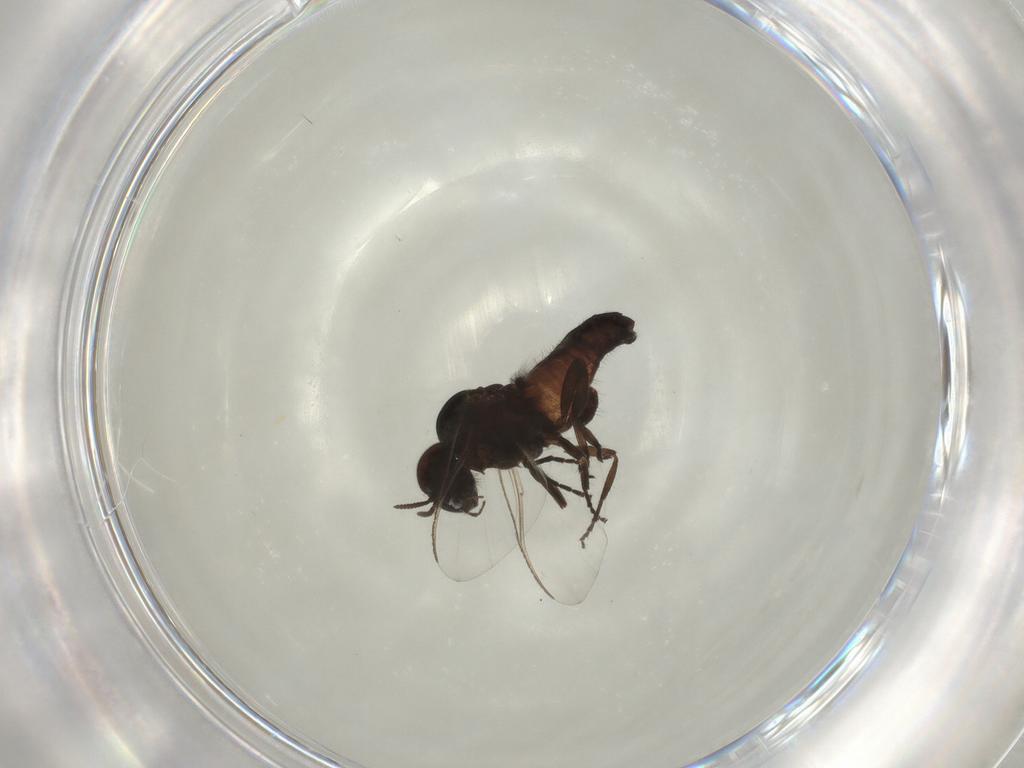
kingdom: Animalia
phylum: Arthropoda
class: Insecta
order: Diptera
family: Simuliidae
